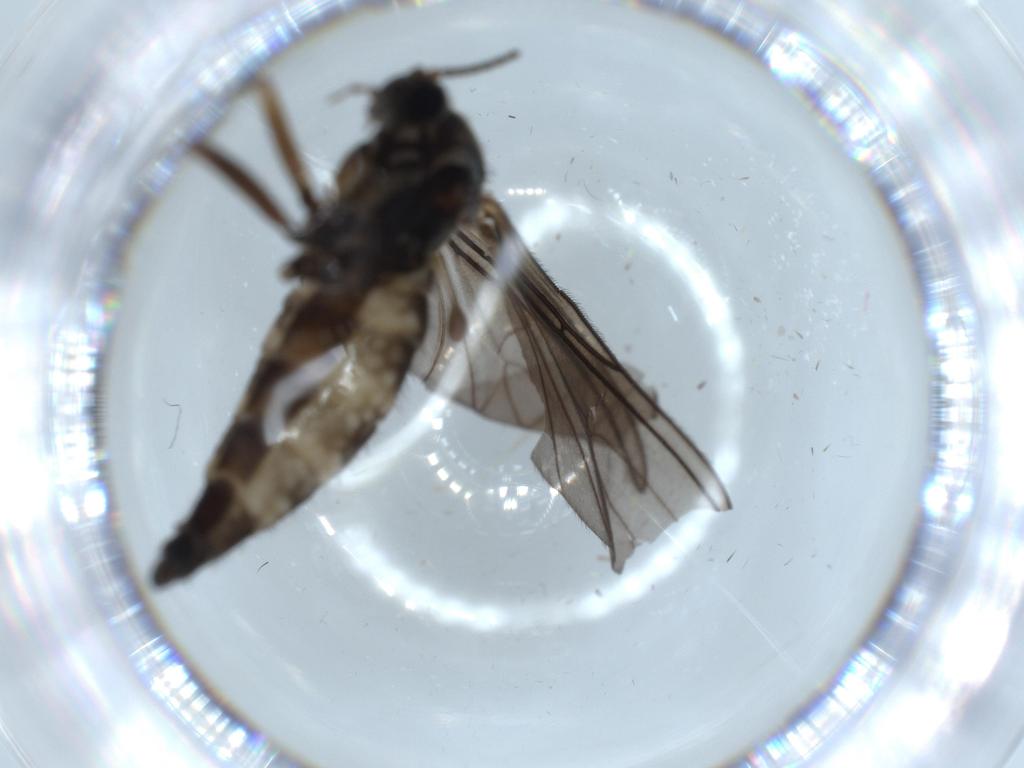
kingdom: Animalia
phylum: Arthropoda
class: Insecta
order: Diptera
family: Sciaridae
